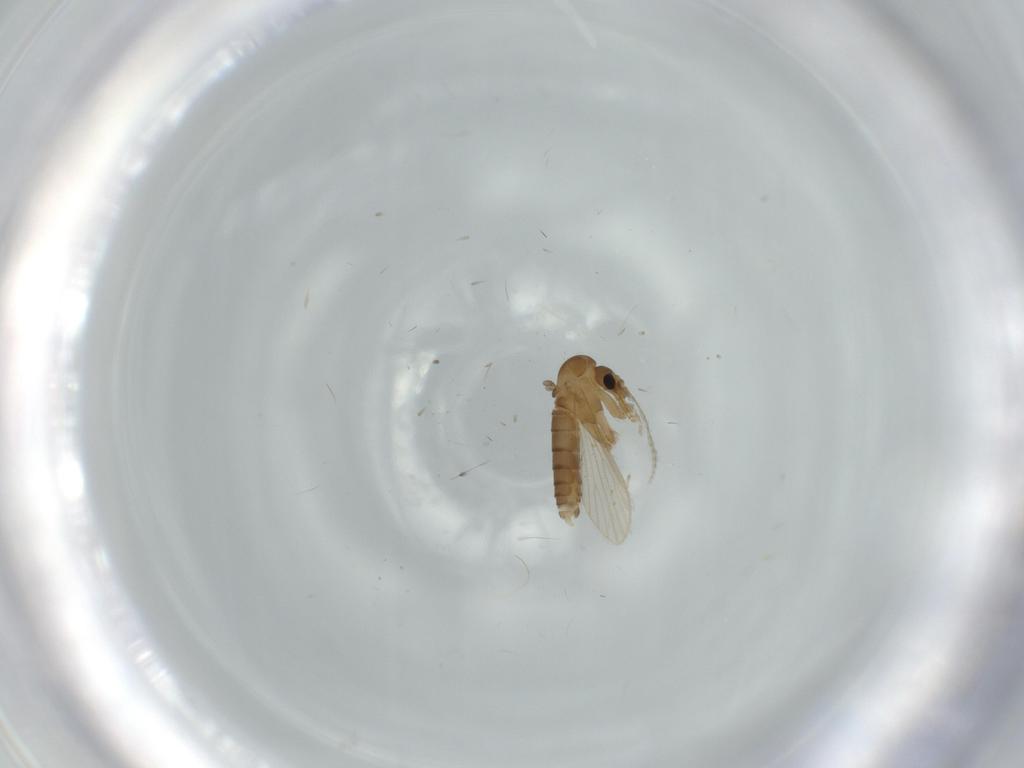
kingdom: Animalia
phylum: Arthropoda
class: Insecta
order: Diptera
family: Psychodidae
